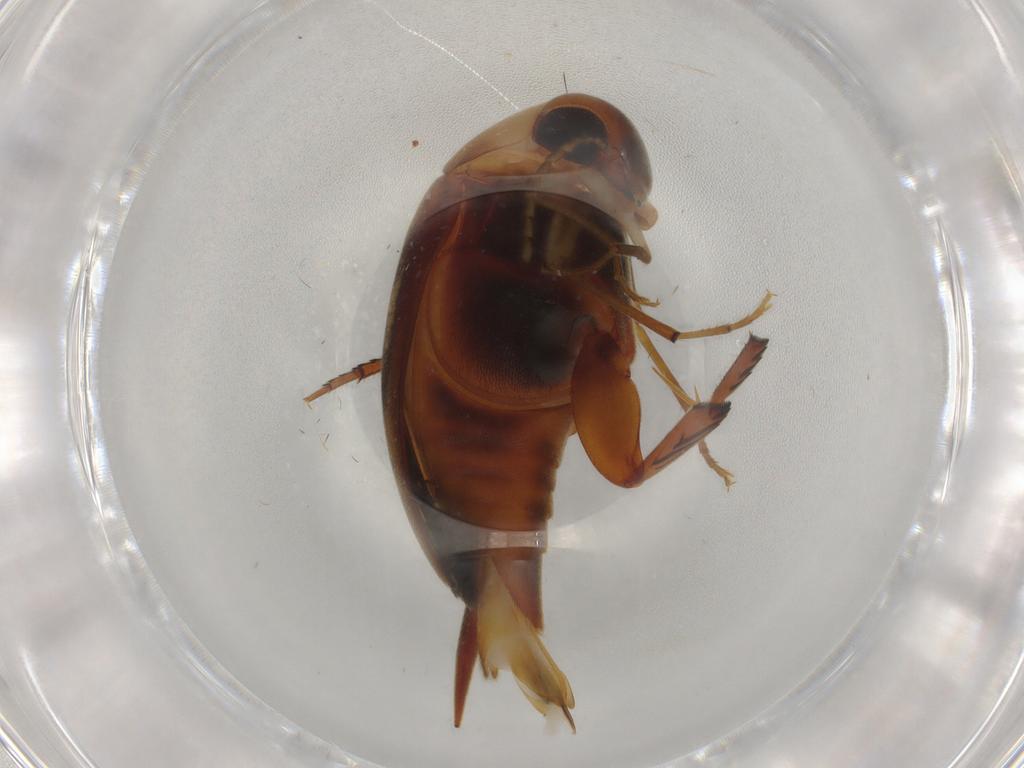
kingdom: Animalia
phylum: Arthropoda
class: Insecta
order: Coleoptera
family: Mordellidae
